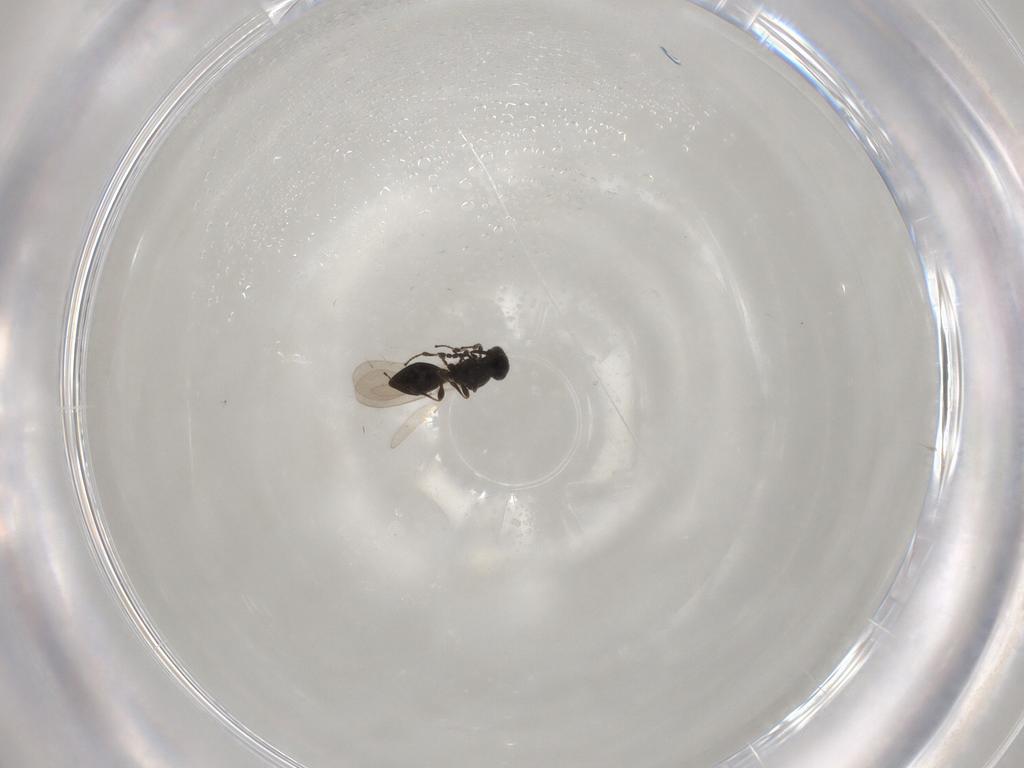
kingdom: Animalia
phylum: Arthropoda
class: Insecta
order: Hymenoptera
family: Platygastridae
